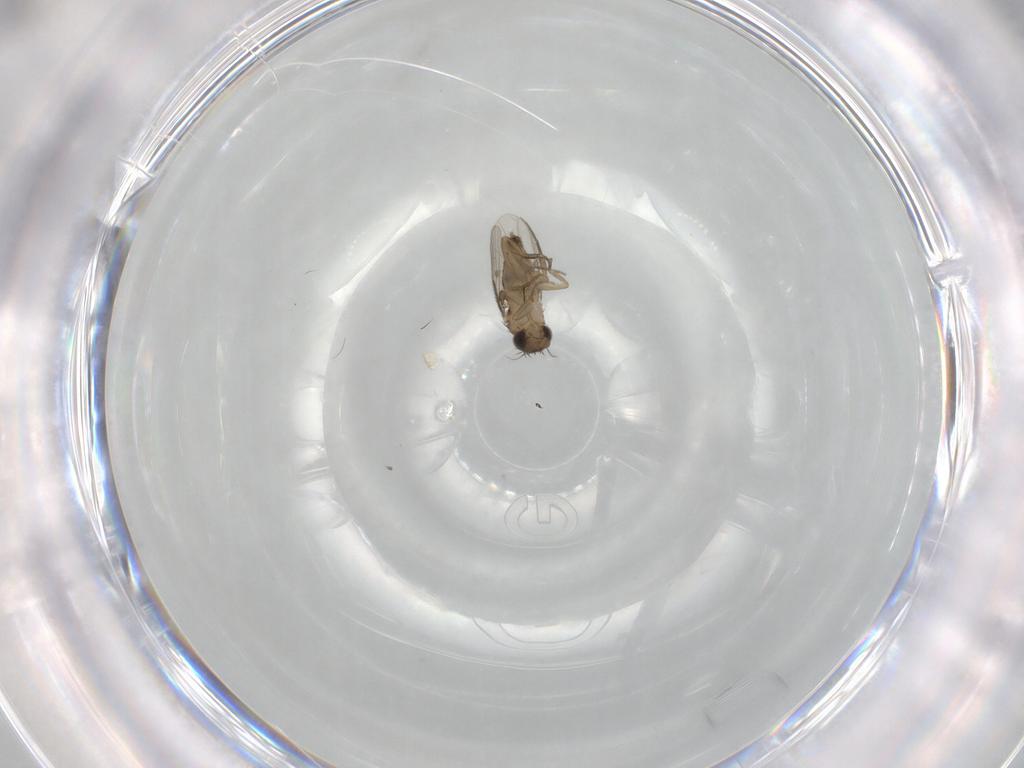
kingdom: Animalia
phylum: Arthropoda
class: Insecta
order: Diptera
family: Phoridae
